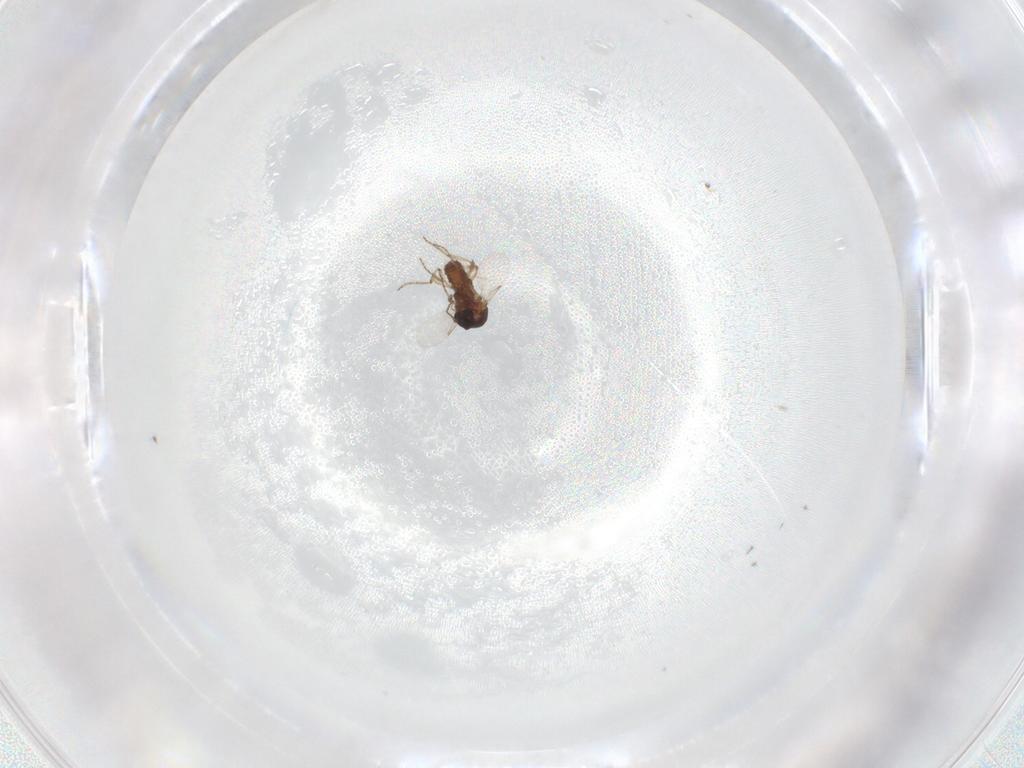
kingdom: Animalia
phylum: Arthropoda
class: Insecta
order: Diptera
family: Ceratopogonidae
